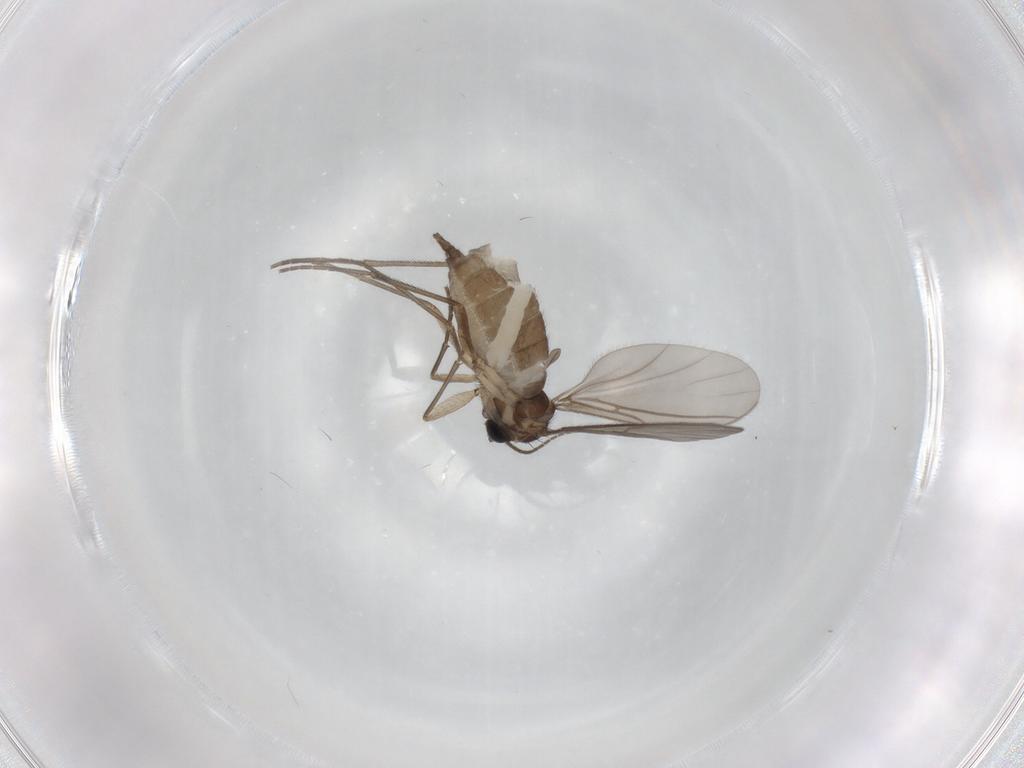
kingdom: Animalia
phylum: Arthropoda
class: Insecta
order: Diptera
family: Sciaridae
